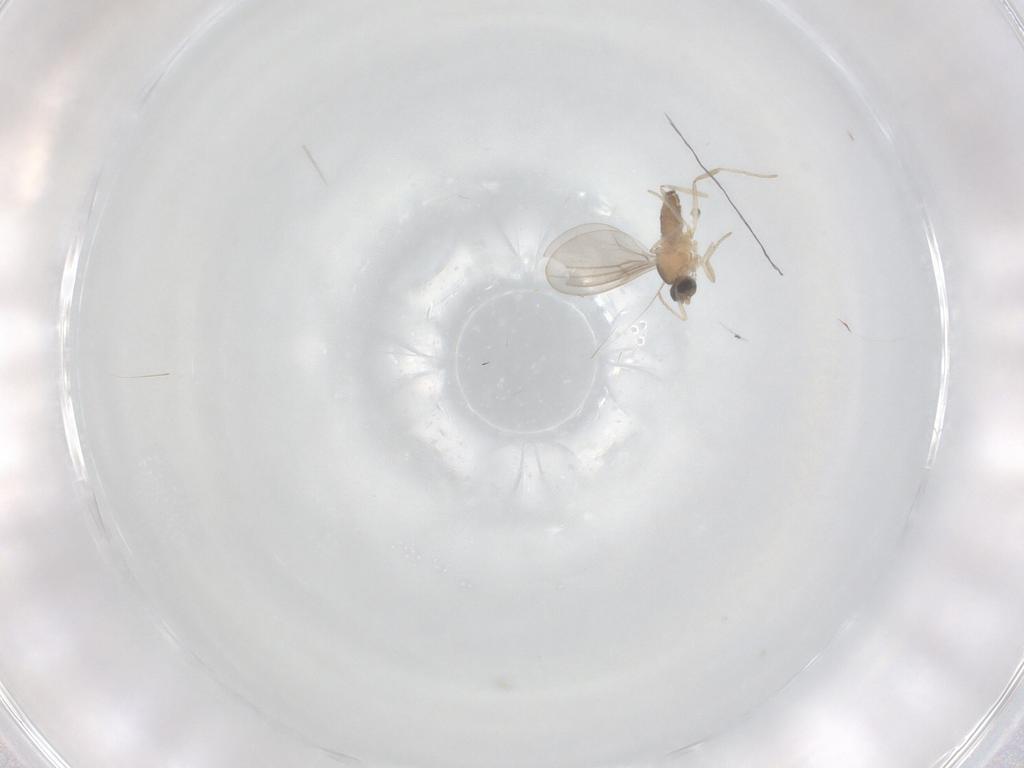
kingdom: Animalia
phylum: Arthropoda
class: Insecta
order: Diptera
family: Cecidomyiidae
